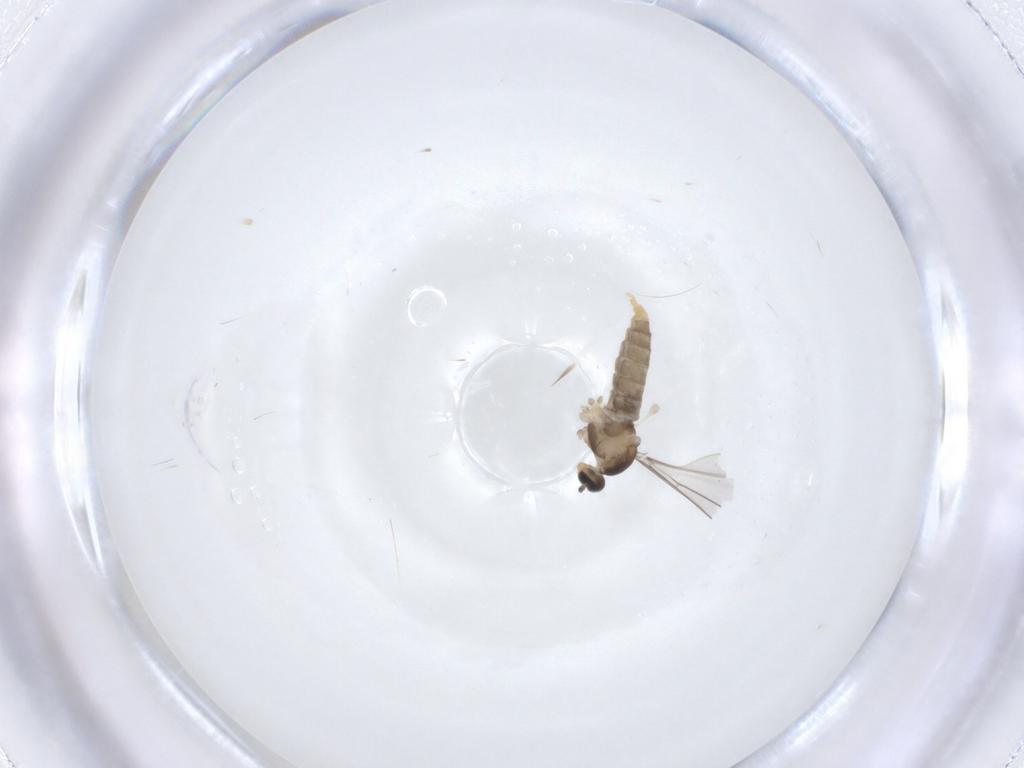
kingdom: Animalia
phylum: Arthropoda
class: Insecta
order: Diptera
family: Cecidomyiidae
